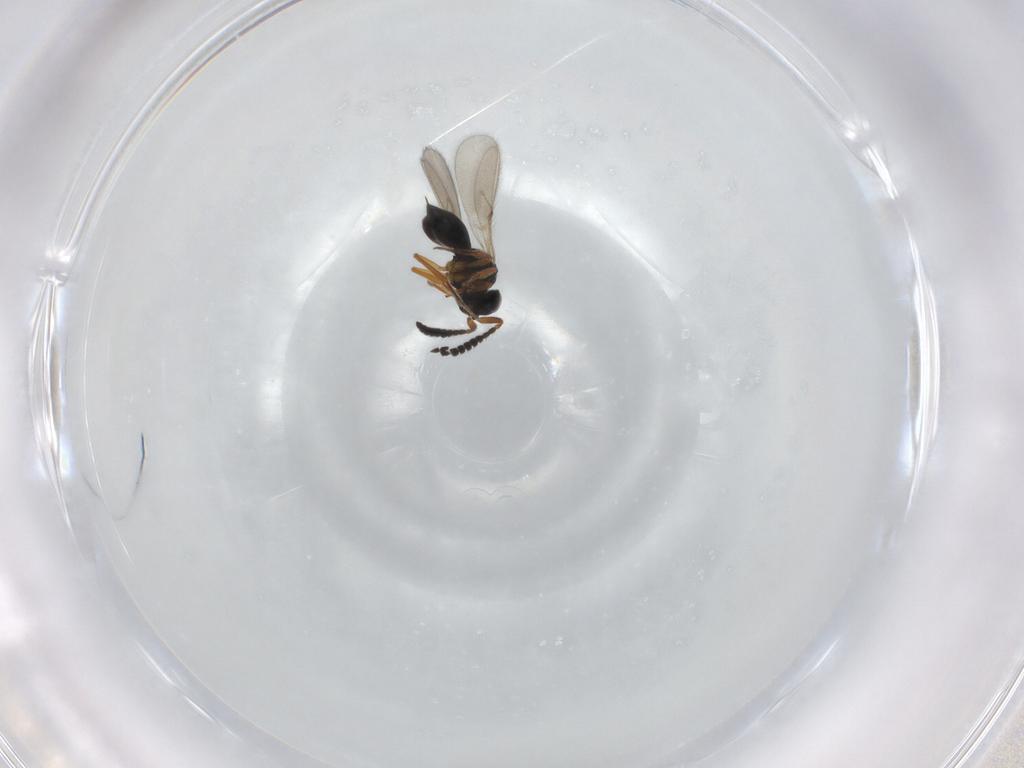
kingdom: Animalia
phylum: Arthropoda
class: Insecta
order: Hymenoptera
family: Scelionidae
